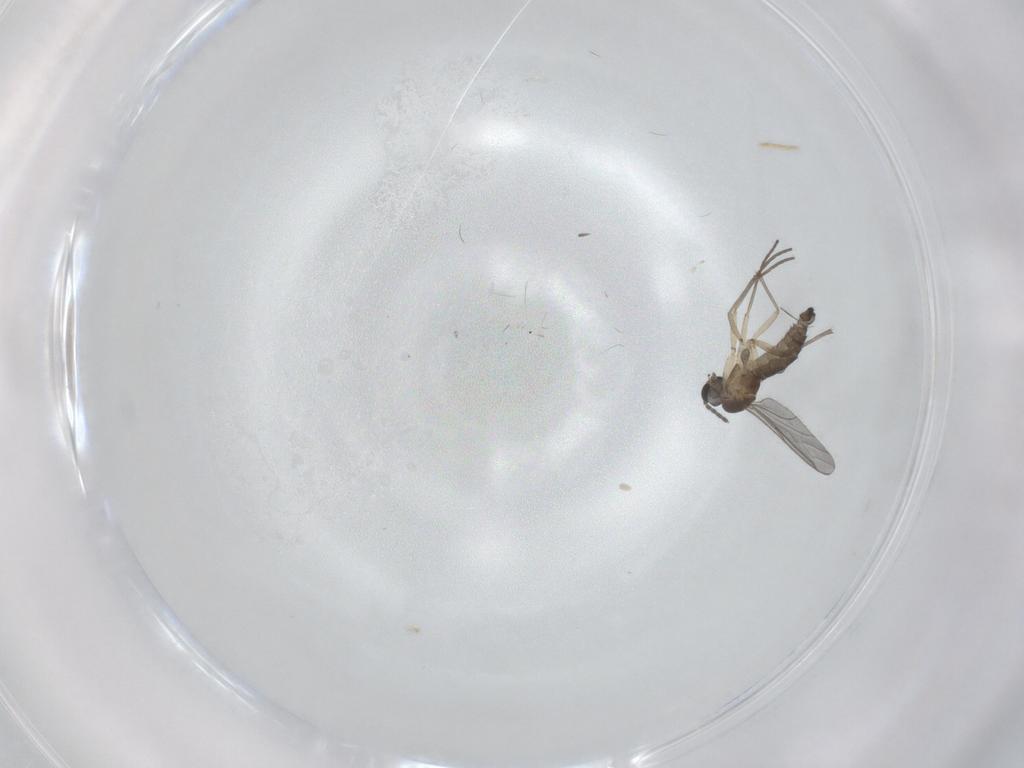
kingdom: Animalia
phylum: Arthropoda
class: Insecta
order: Diptera
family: Sciaridae
